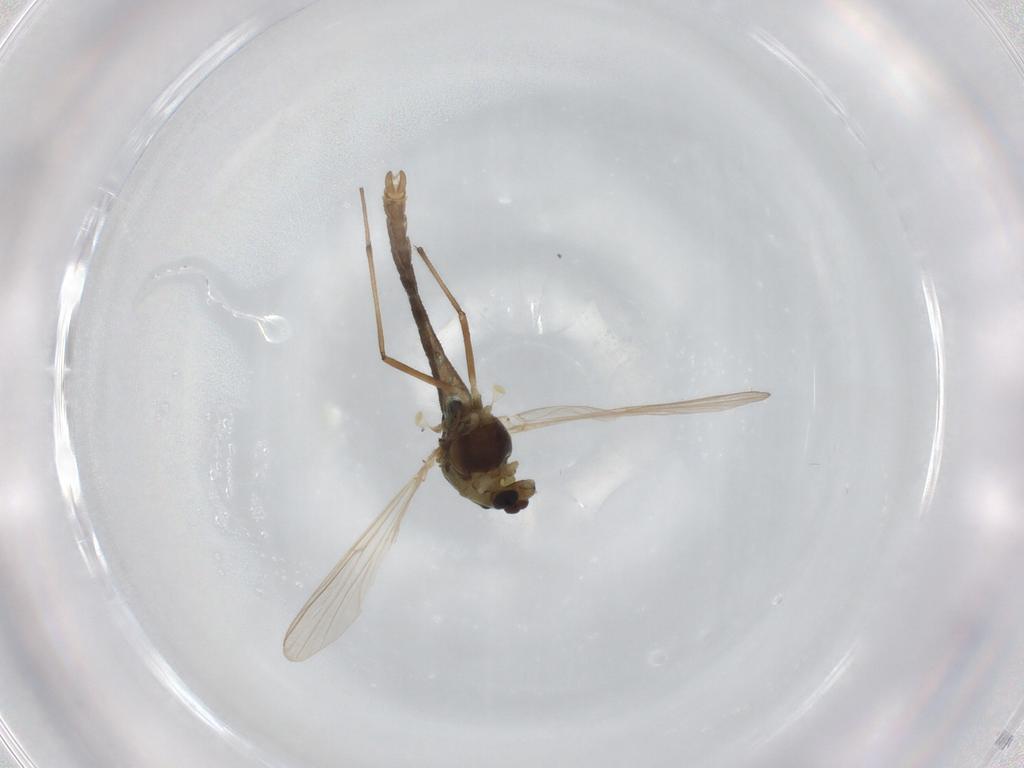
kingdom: Animalia
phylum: Arthropoda
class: Insecta
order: Diptera
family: Chironomidae
